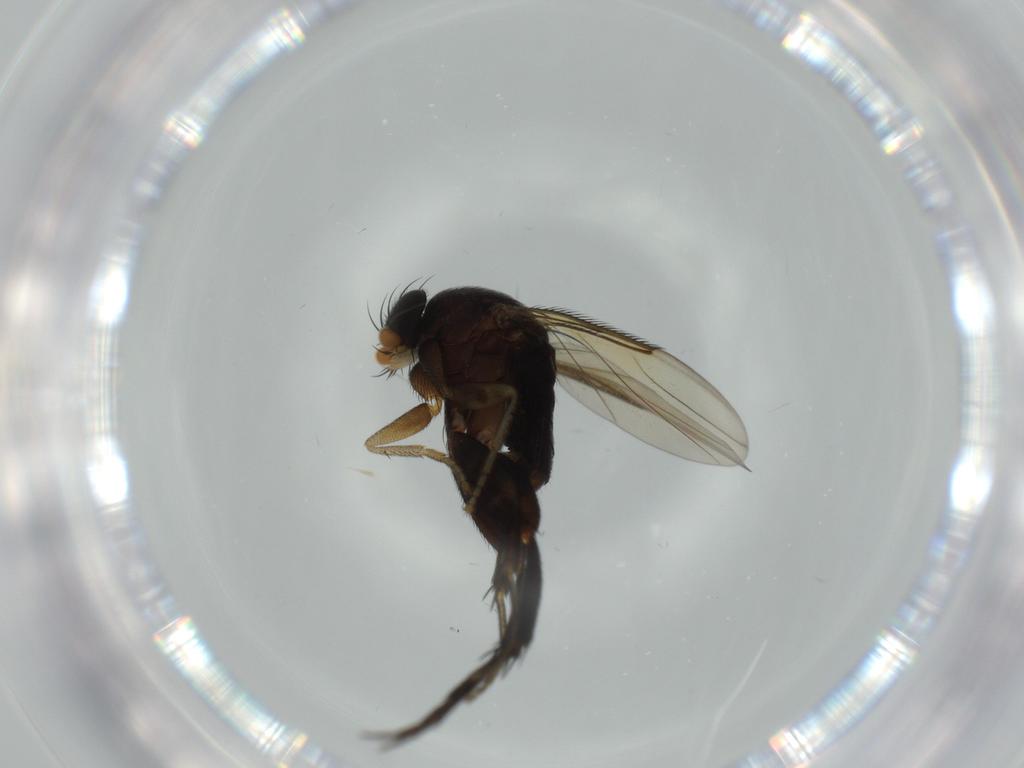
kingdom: Animalia
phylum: Arthropoda
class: Insecta
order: Diptera
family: Phoridae
